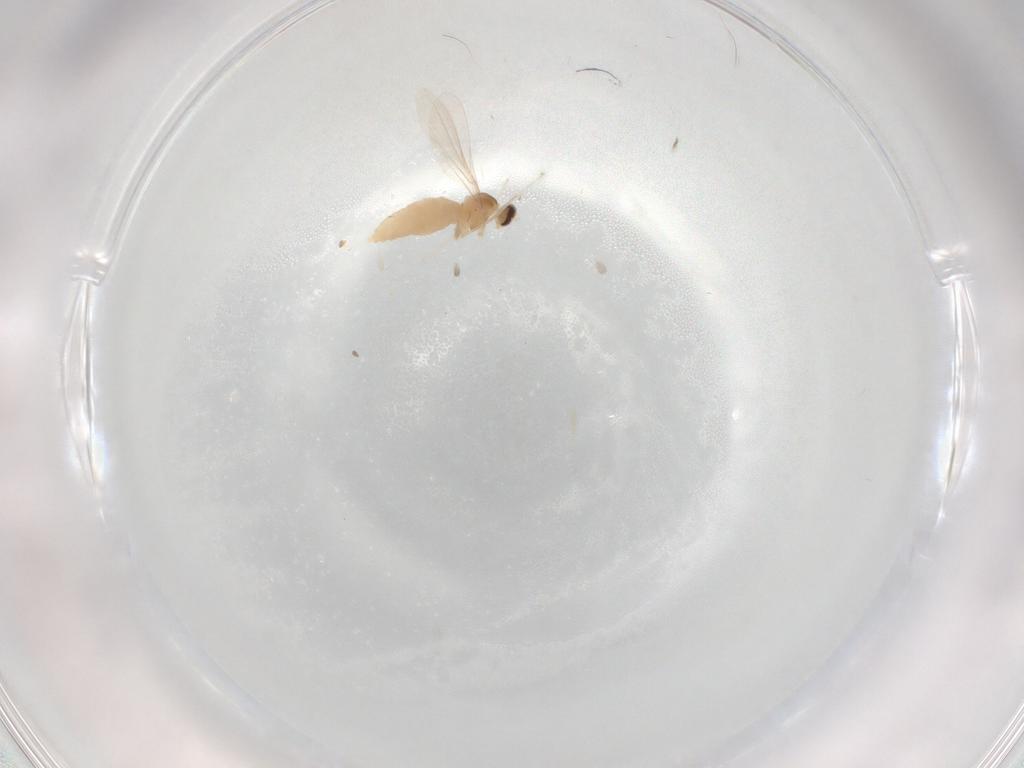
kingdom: Animalia
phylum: Arthropoda
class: Insecta
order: Diptera
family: Cecidomyiidae
